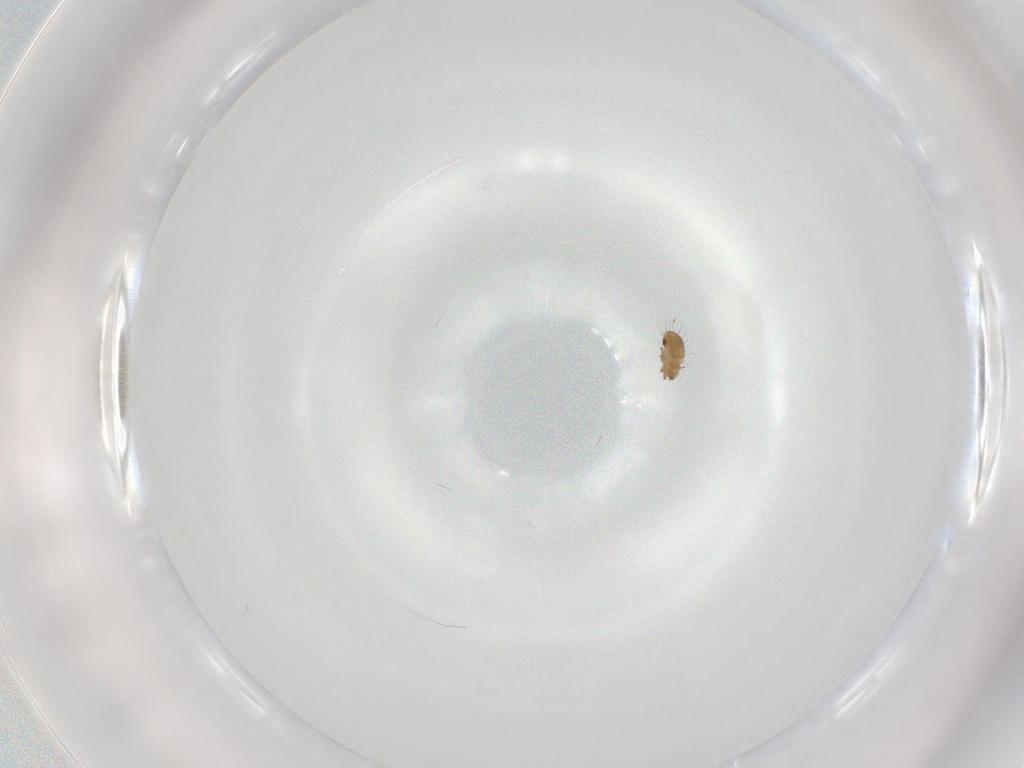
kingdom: Animalia
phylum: Arthropoda
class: Arachnida
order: Sarcoptiformes
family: Humerobatidae
